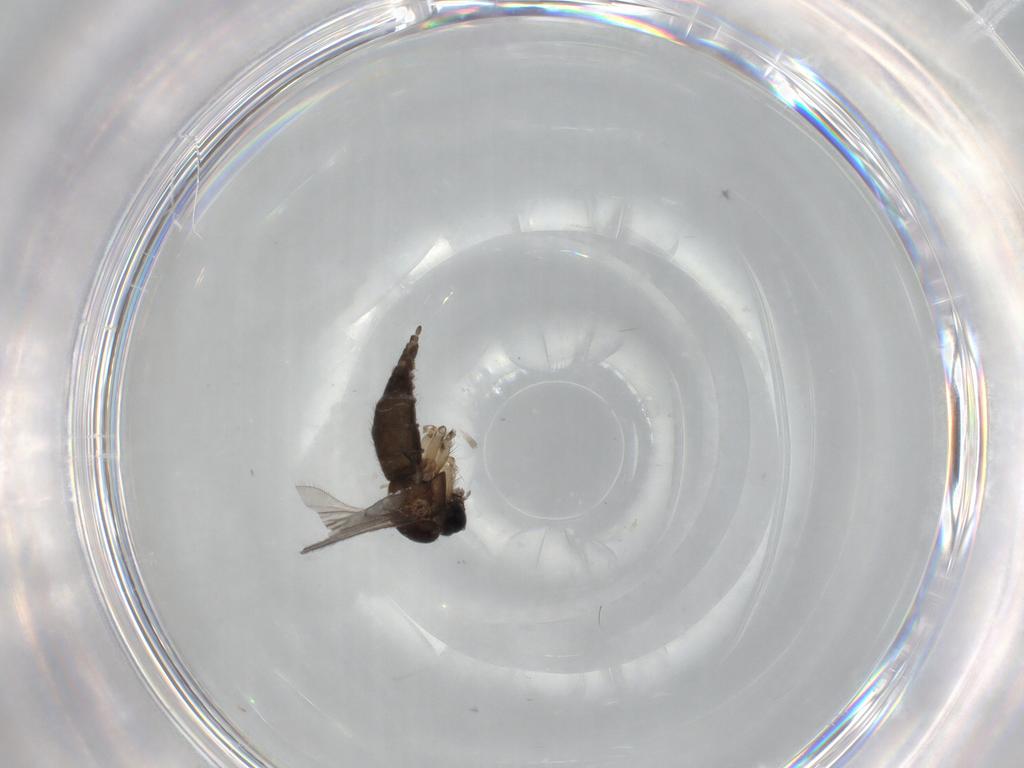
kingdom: Animalia
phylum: Arthropoda
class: Insecta
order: Diptera
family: Sciaridae
